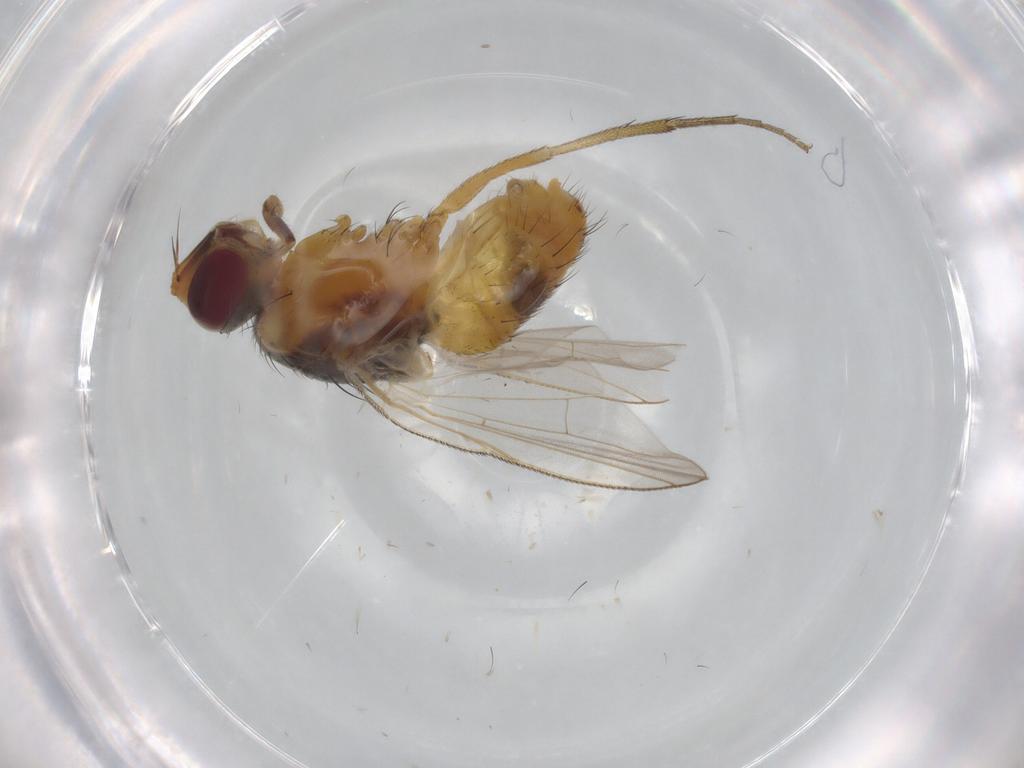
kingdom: Animalia
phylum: Arthropoda
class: Insecta
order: Diptera
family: Muscidae
